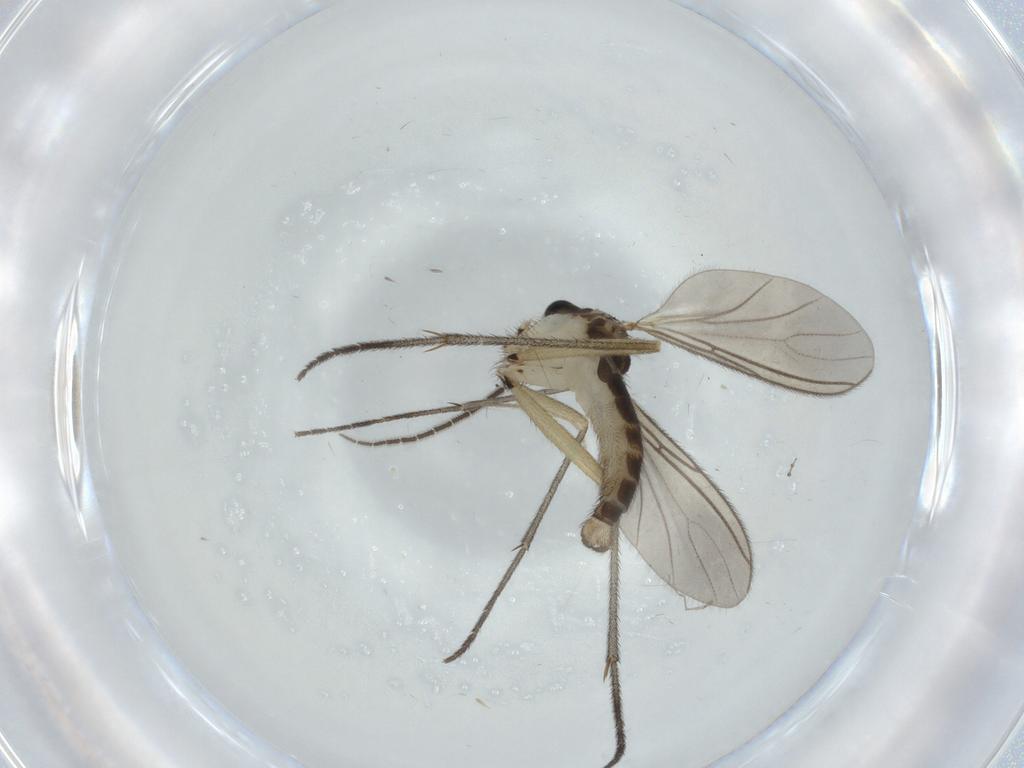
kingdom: Animalia
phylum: Arthropoda
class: Insecta
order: Diptera
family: Sciaridae
